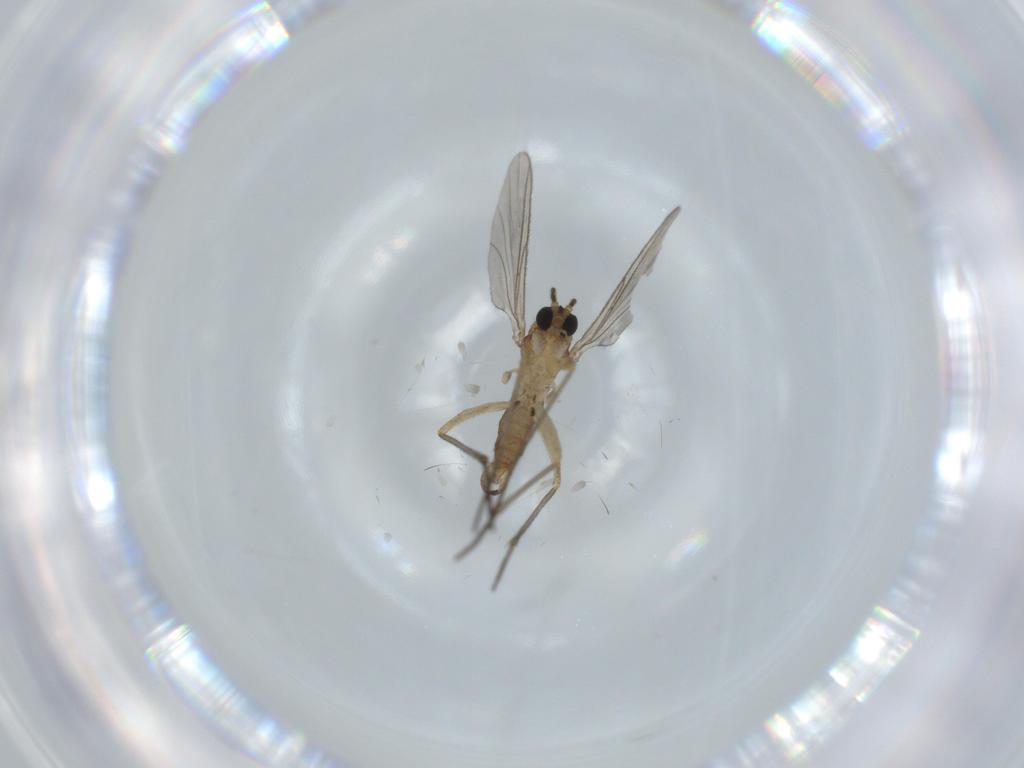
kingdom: Animalia
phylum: Arthropoda
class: Insecta
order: Diptera
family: Sciaridae
